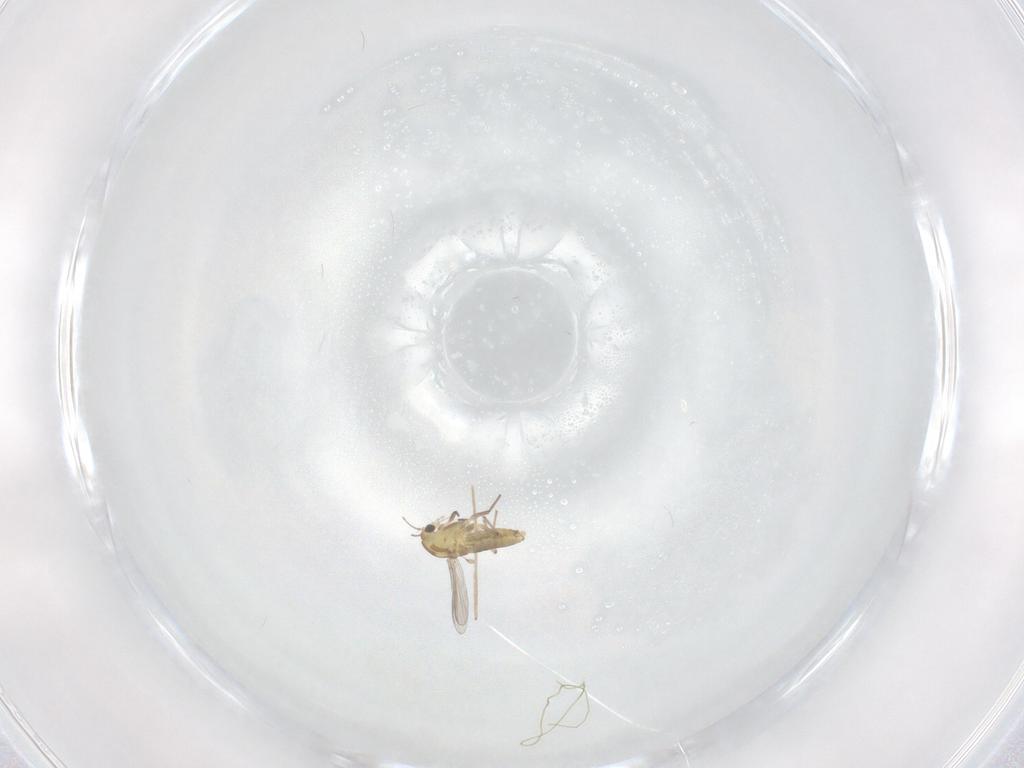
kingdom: Animalia
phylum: Arthropoda
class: Insecta
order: Diptera
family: Chironomidae
